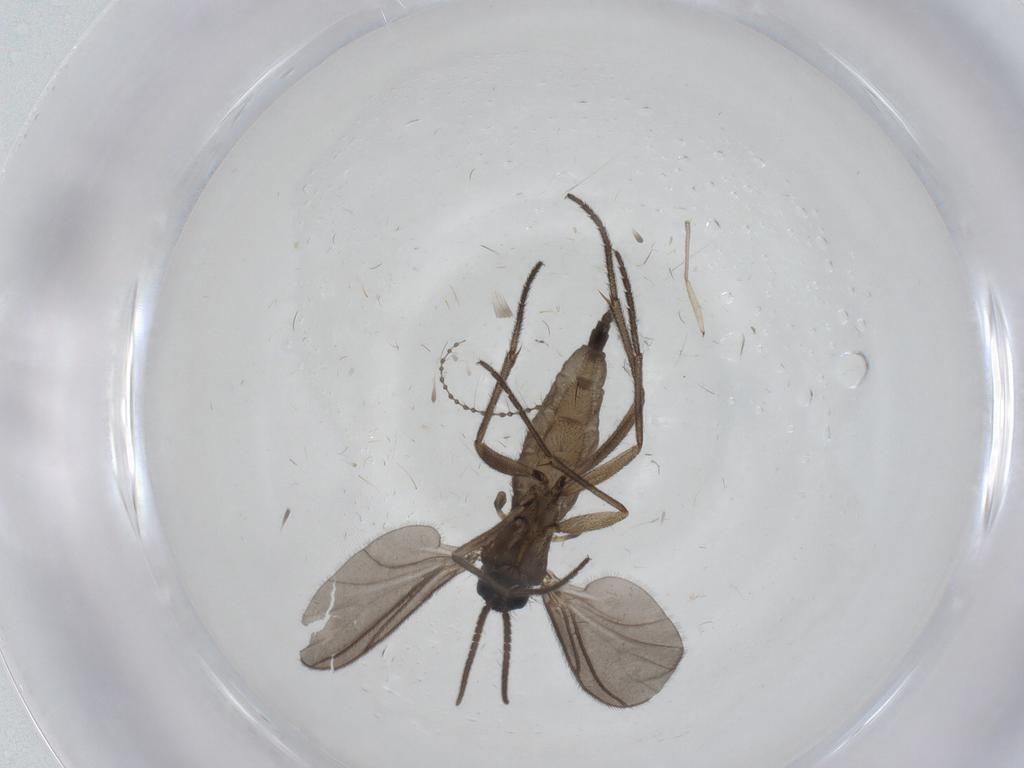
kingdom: Animalia
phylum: Arthropoda
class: Insecta
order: Diptera
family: Sciaridae
